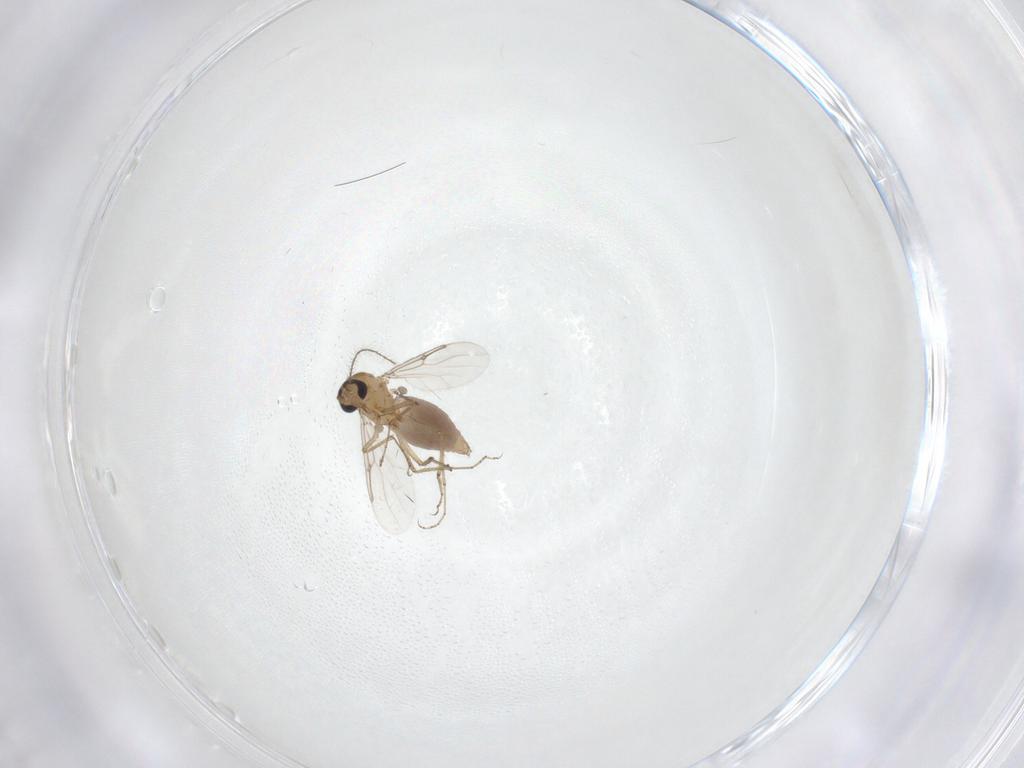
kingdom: Animalia
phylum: Arthropoda
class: Insecta
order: Diptera
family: Cecidomyiidae
